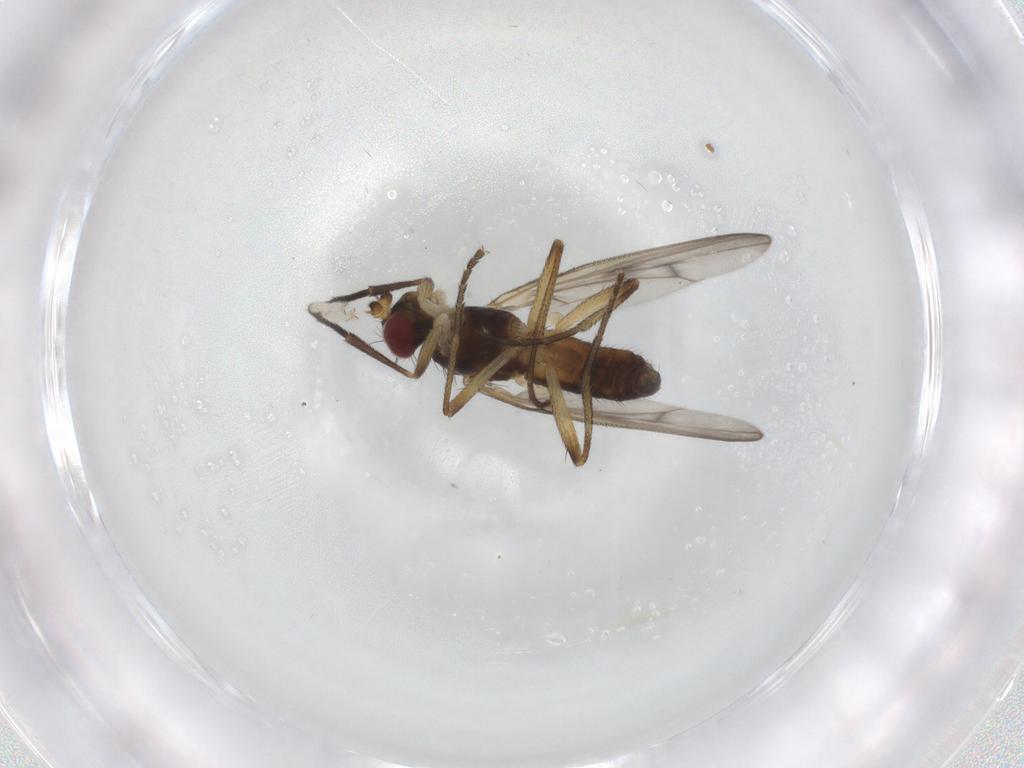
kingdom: Animalia
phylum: Arthropoda
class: Insecta
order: Diptera
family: Sciomyzidae
